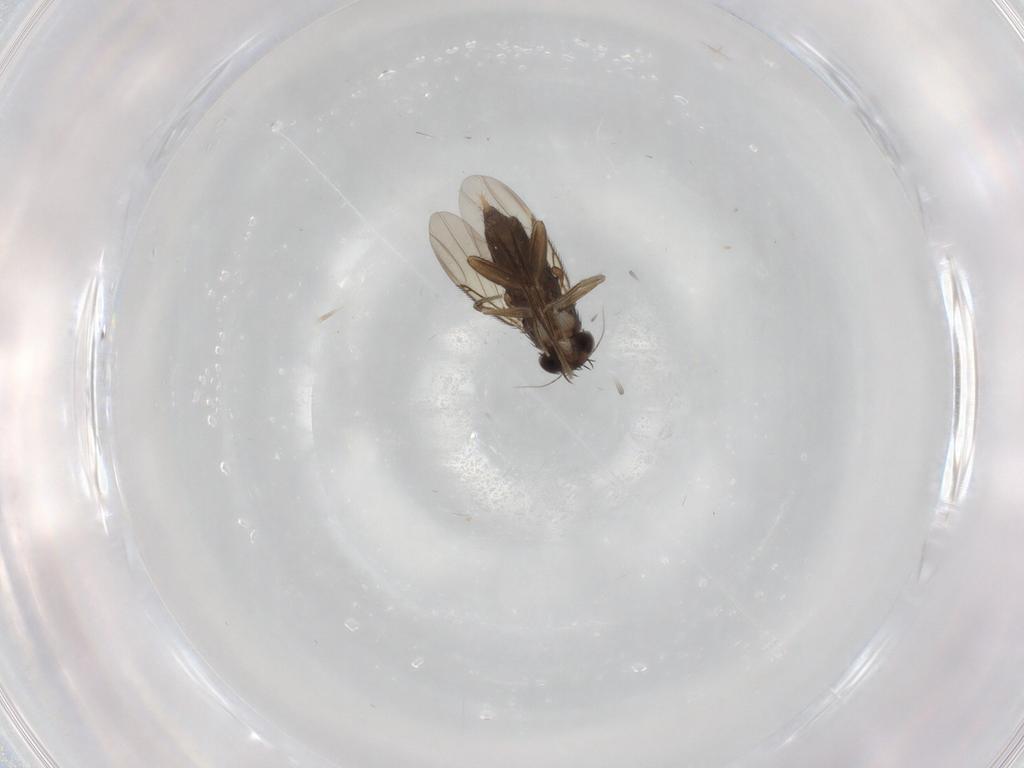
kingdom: Animalia
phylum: Arthropoda
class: Insecta
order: Diptera
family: Phoridae
